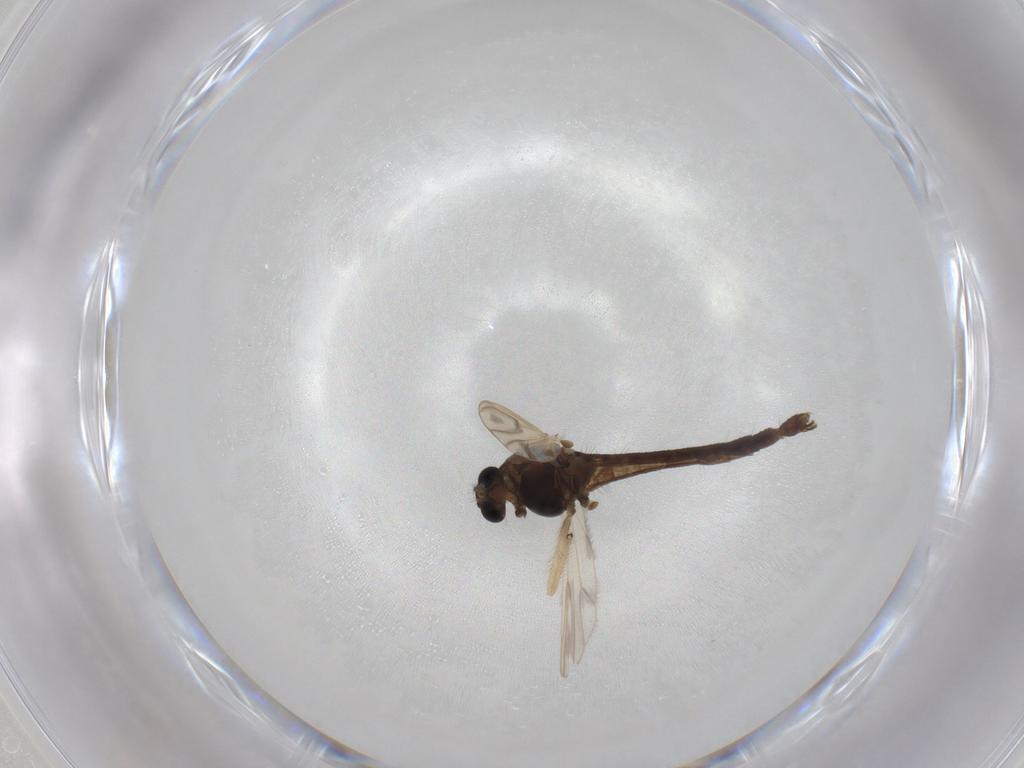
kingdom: Animalia
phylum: Arthropoda
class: Insecta
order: Diptera
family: Chironomidae
